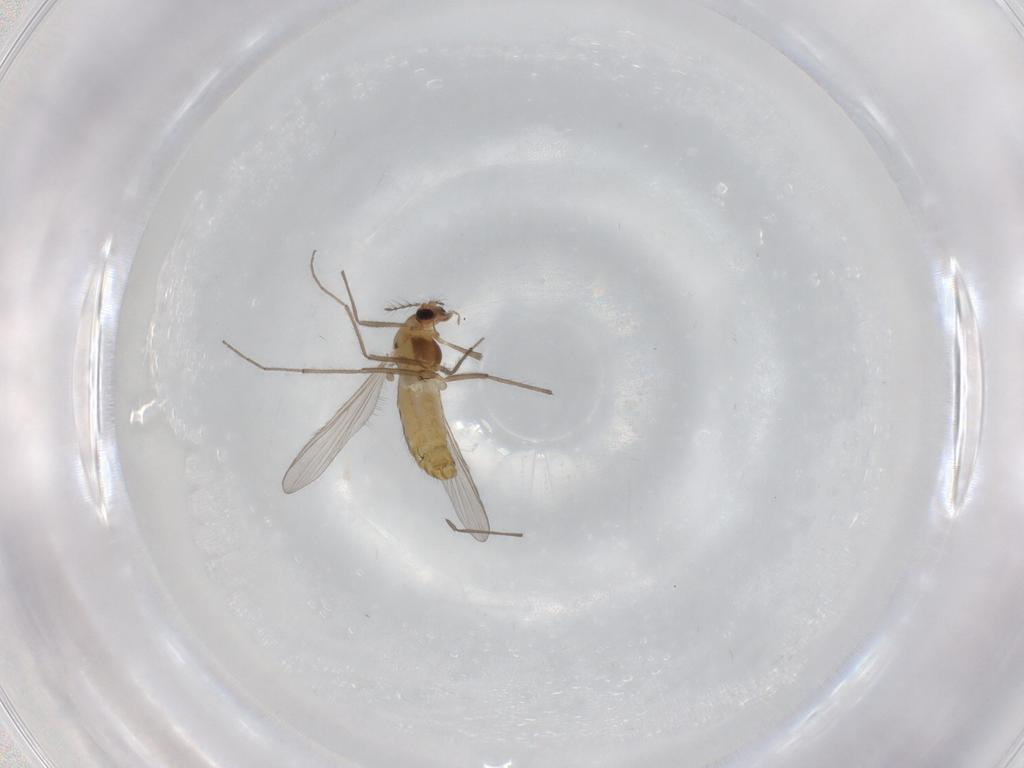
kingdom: Animalia
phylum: Arthropoda
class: Insecta
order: Diptera
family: Chironomidae
